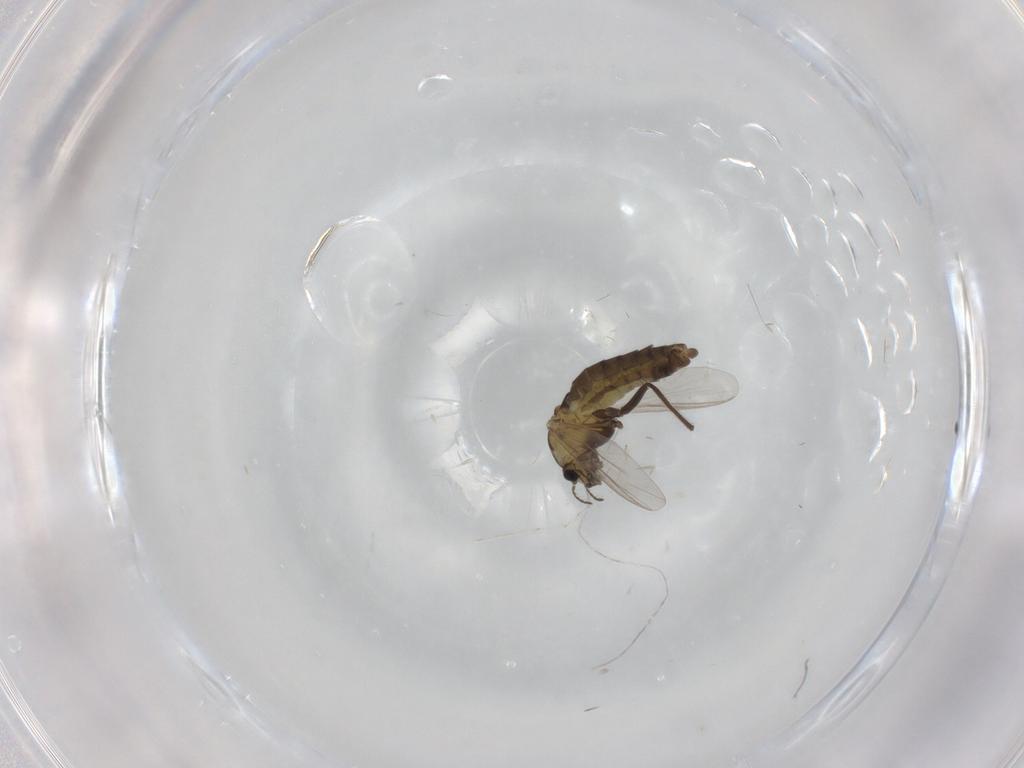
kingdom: Animalia
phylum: Arthropoda
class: Insecta
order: Diptera
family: Chironomidae
